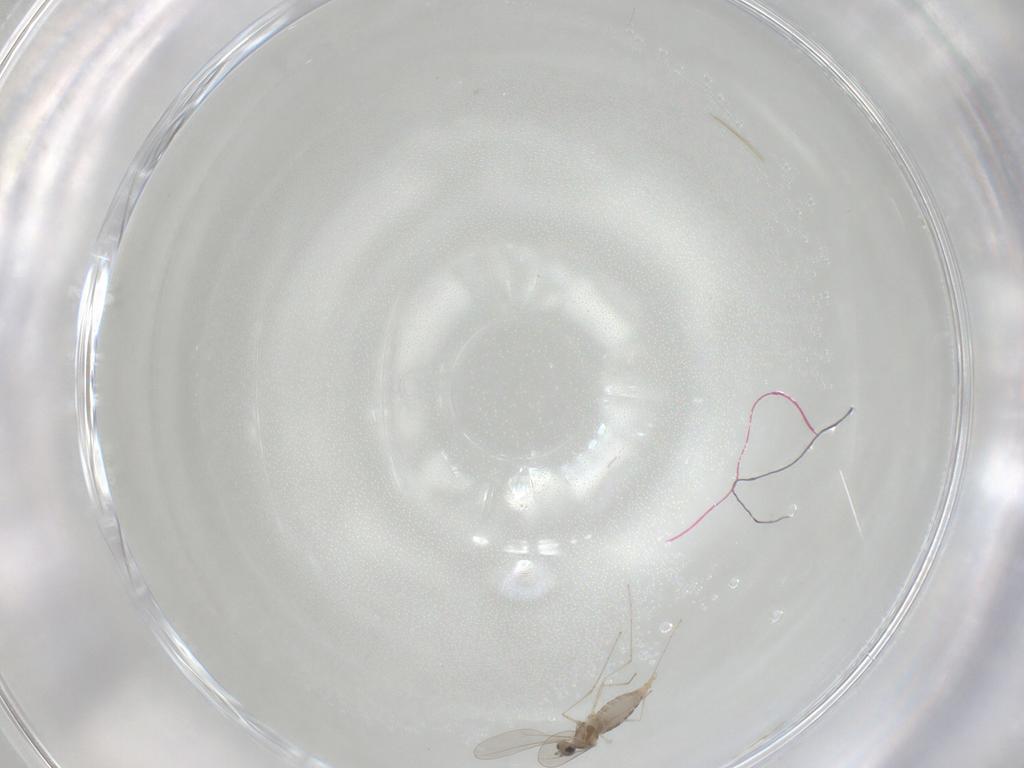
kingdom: Animalia
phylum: Arthropoda
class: Insecta
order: Diptera
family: Cecidomyiidae
